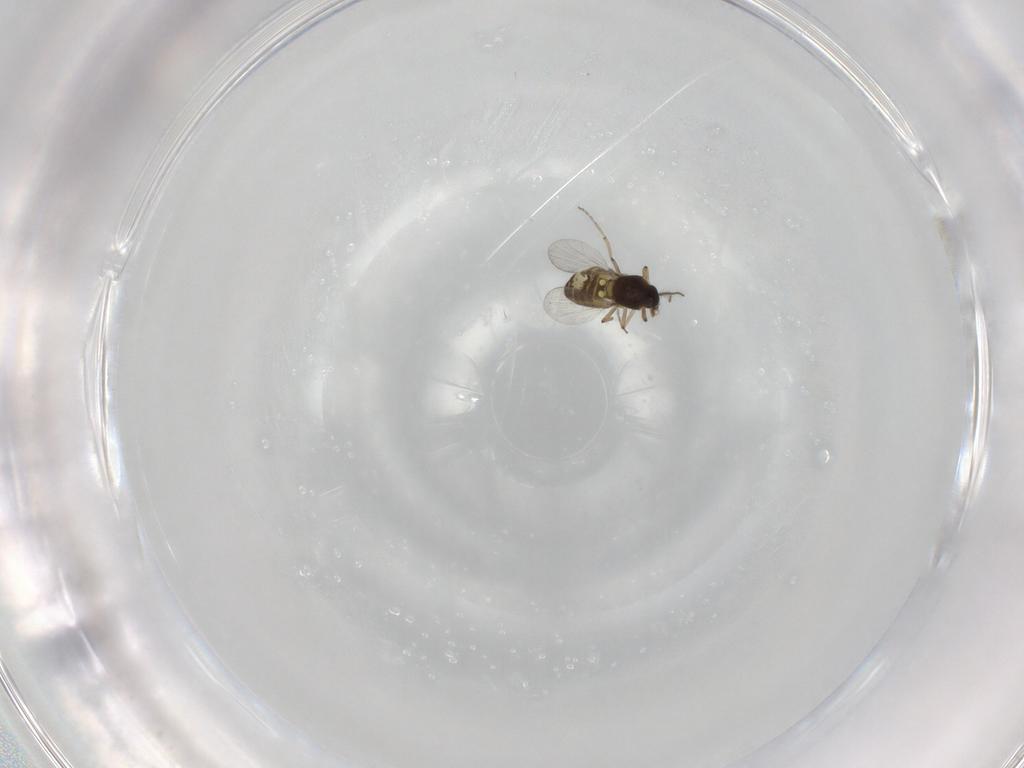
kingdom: Animalia
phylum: Arthropoda
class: Insecta
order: Diptera
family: Ceratopogonidae
